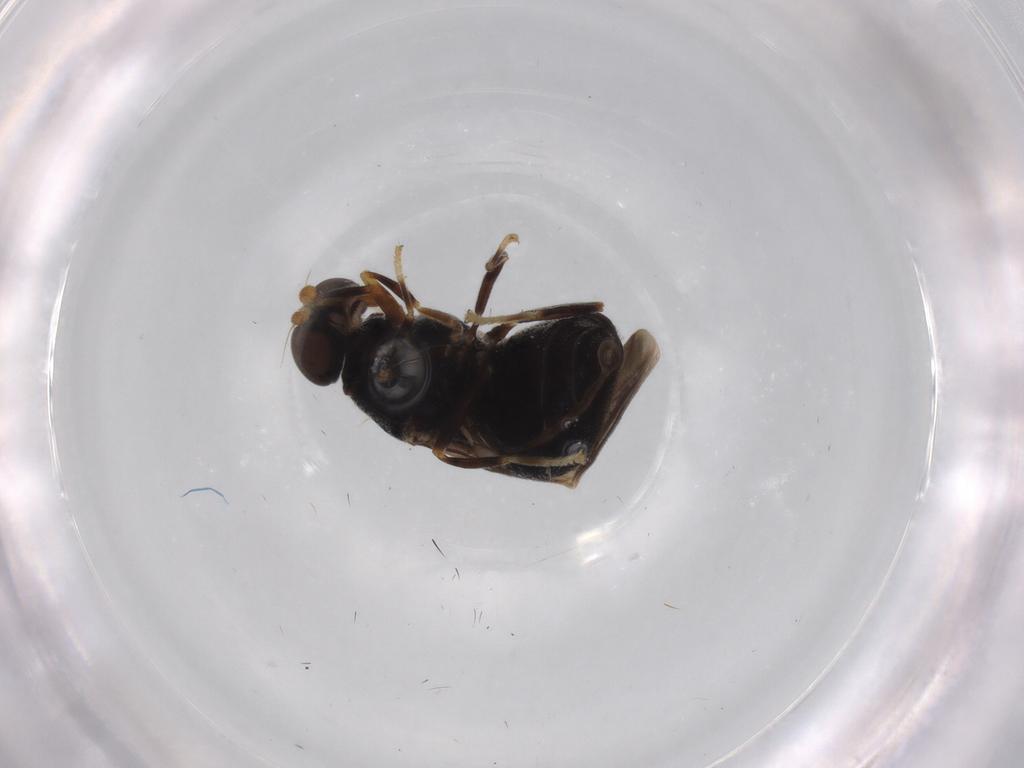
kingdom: Animalia
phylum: Arthropoda
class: Insecta
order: Diptera
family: Stratiomyidae
